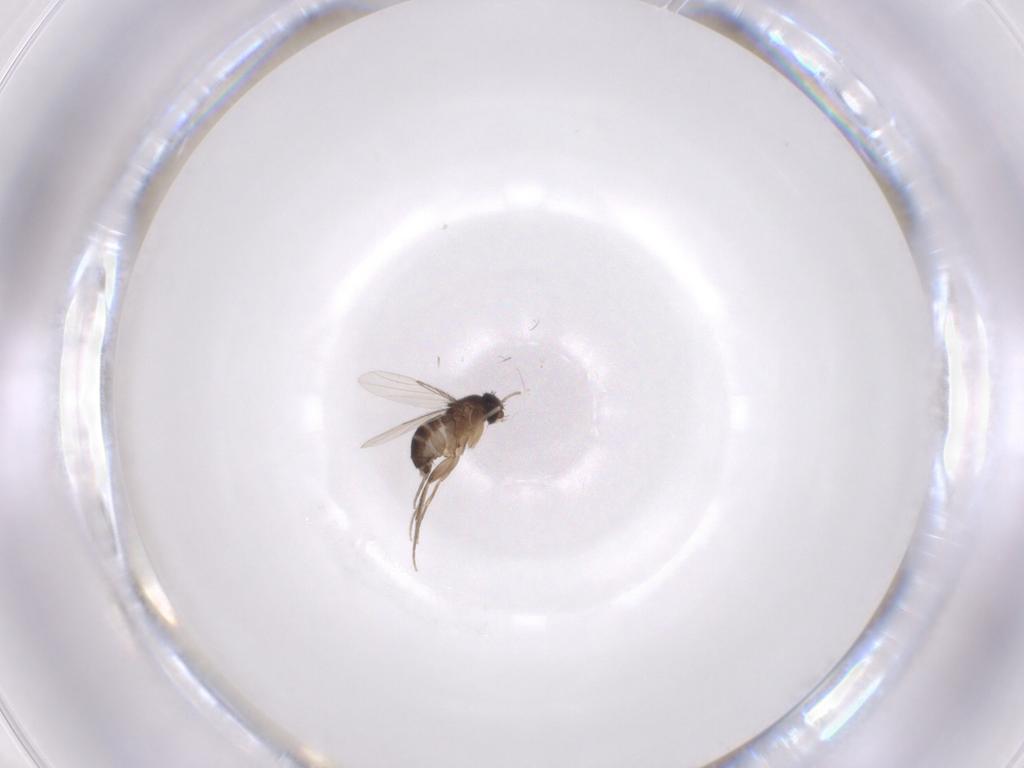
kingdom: Animalia
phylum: Arthropoda
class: Insecta
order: Diptera
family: Phoridae
